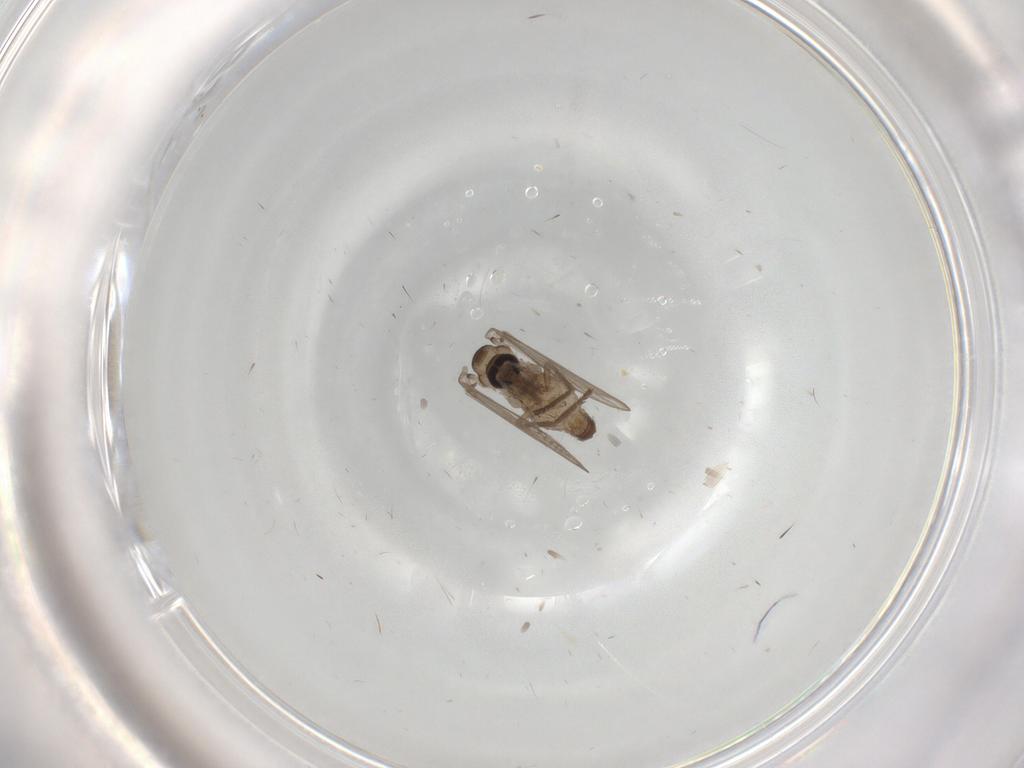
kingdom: Animalia
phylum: Arthropoda
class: Insecta
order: Diptera
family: Psychodidae
